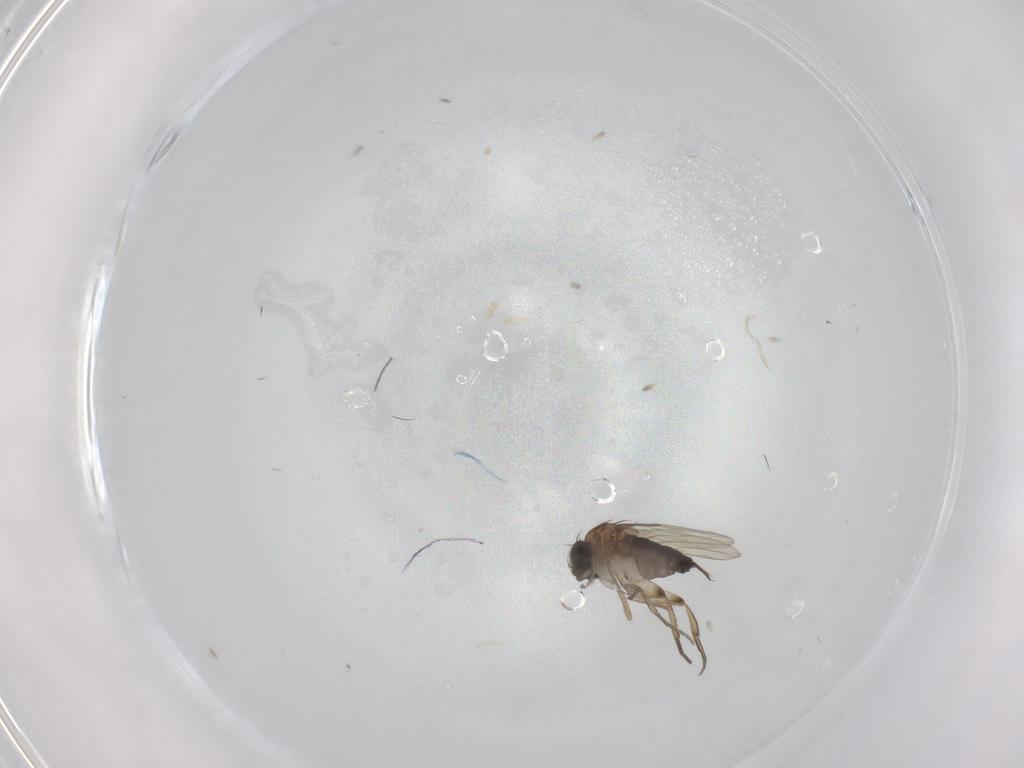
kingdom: Animalia
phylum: Arthropoda
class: Insecta
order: Diptera
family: Phoridae
